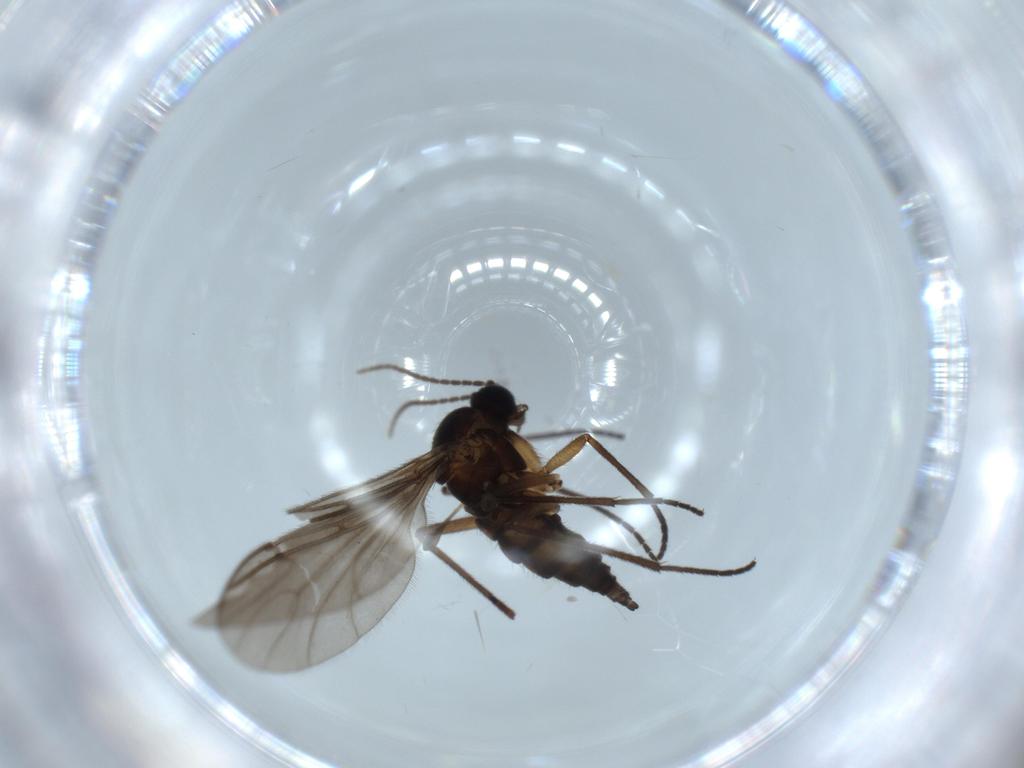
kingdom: Animalia
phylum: Arthropoda
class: Insecta
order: Diptera
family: Sciaridae
